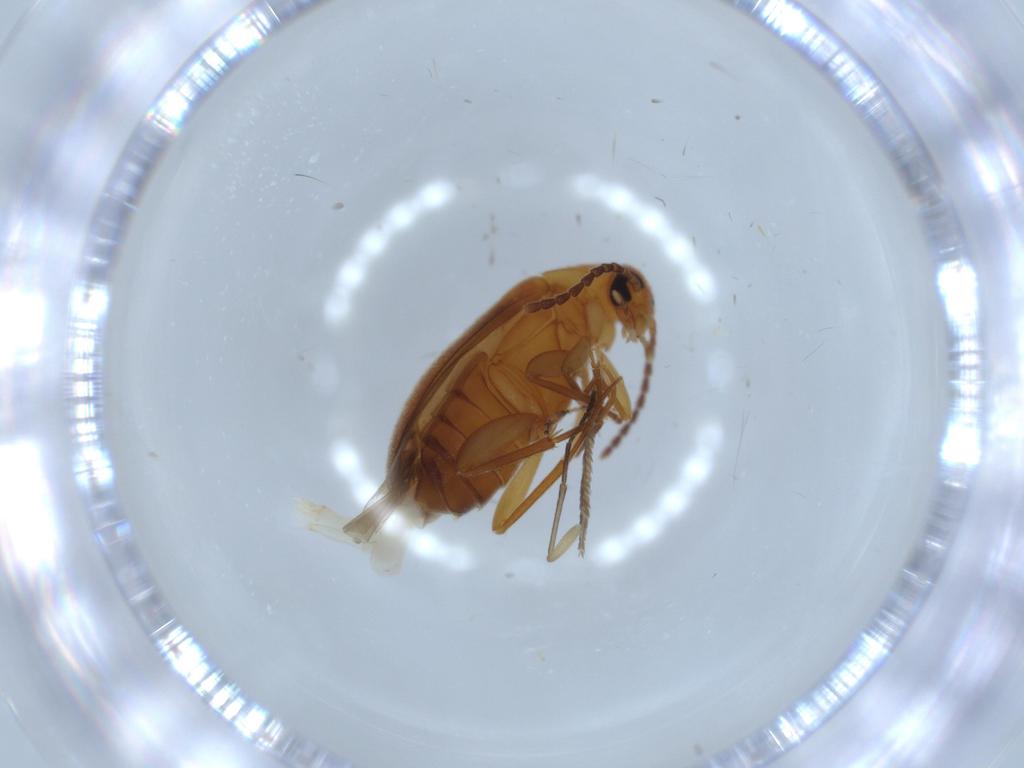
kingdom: Animalia
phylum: Arthropoda
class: Insecta
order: Coleoptera
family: Scraptiidae
